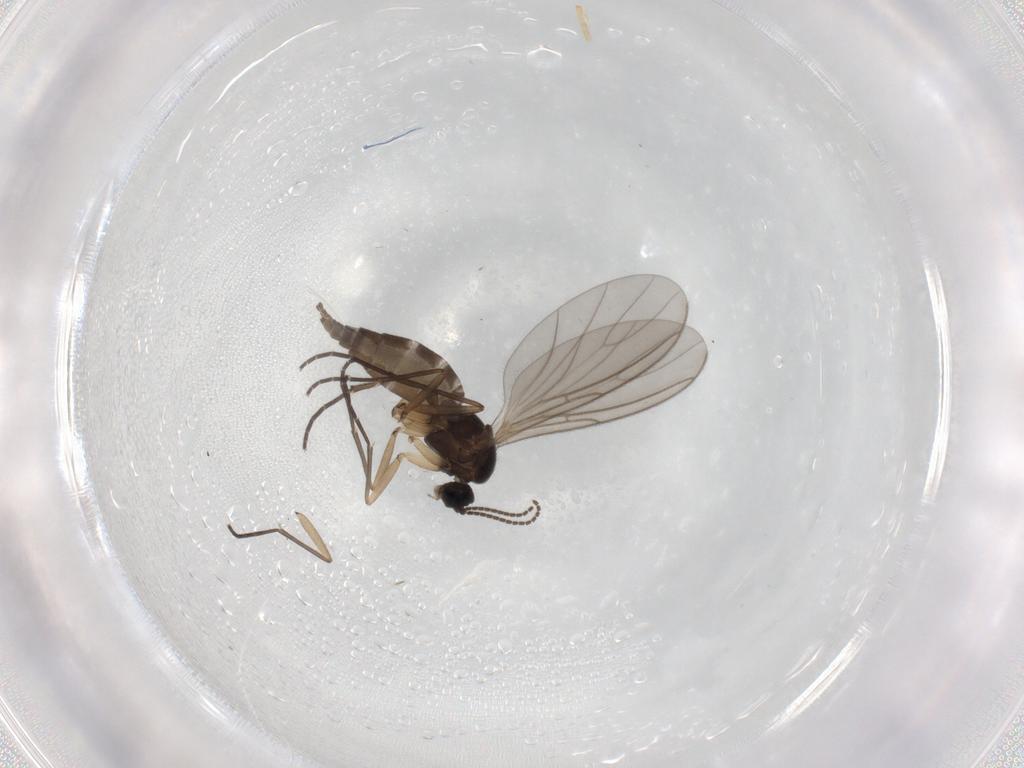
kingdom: Animalia
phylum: Arthropoda
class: Insecta
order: Diptera
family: Sciaridae
